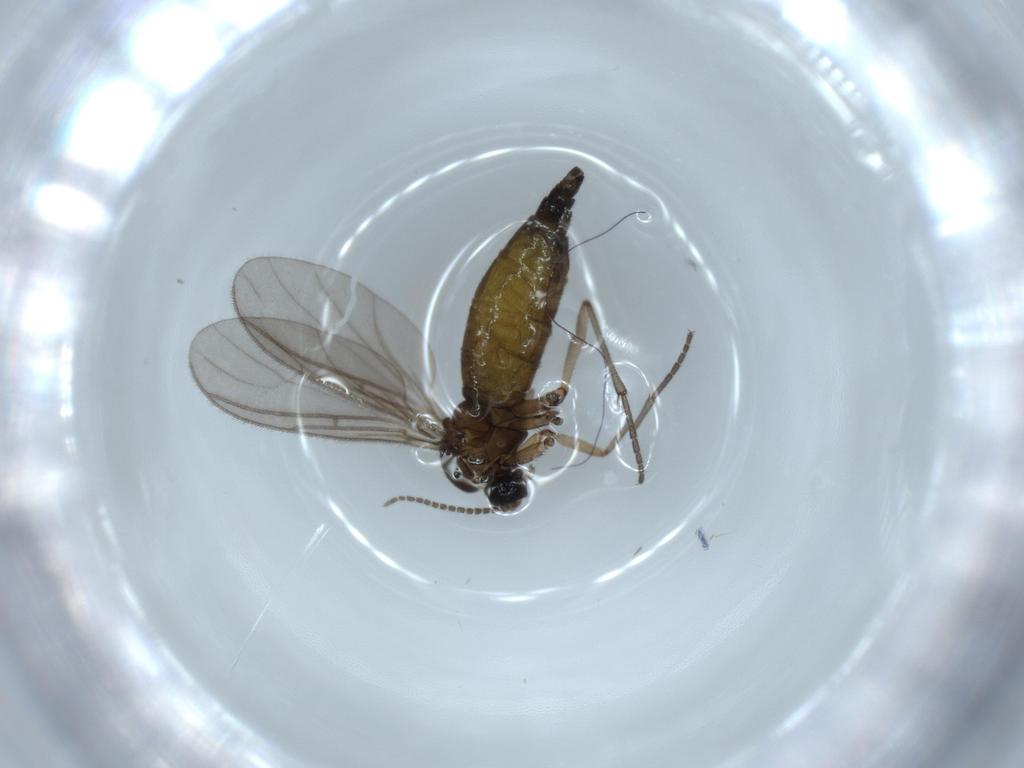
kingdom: Animalia
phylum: Arthropoda
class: Insecta
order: Diptera
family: Sciaridae
